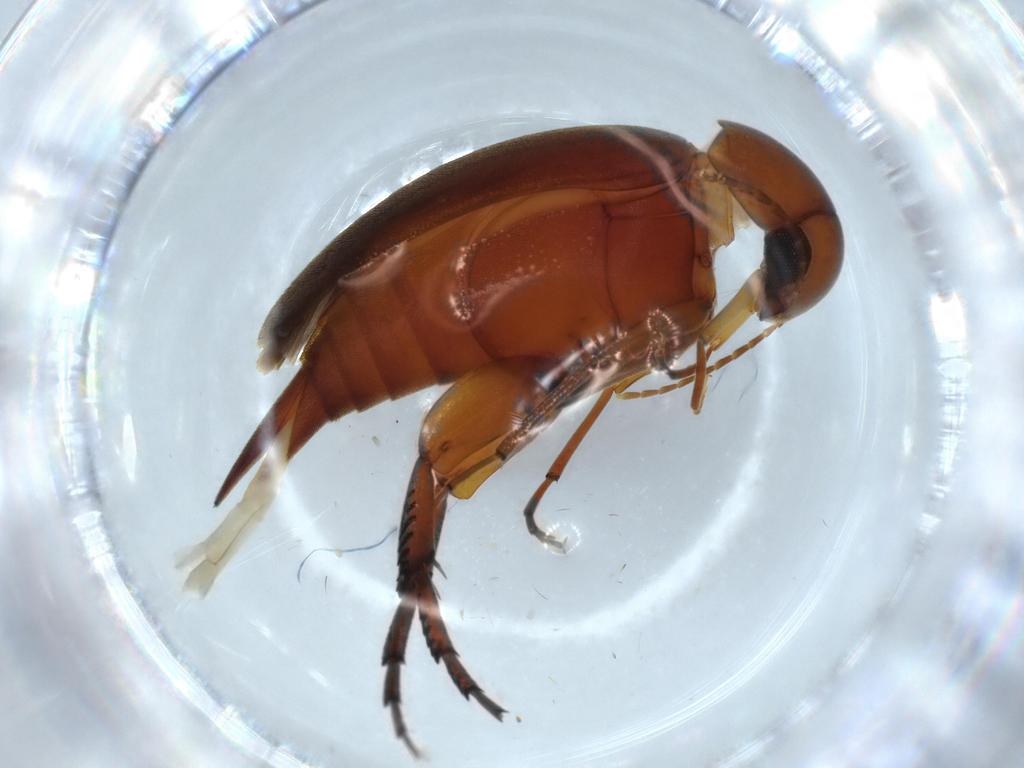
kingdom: Animalia
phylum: Arthropoda
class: Insecta
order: Coleoptera
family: Mordellidae
